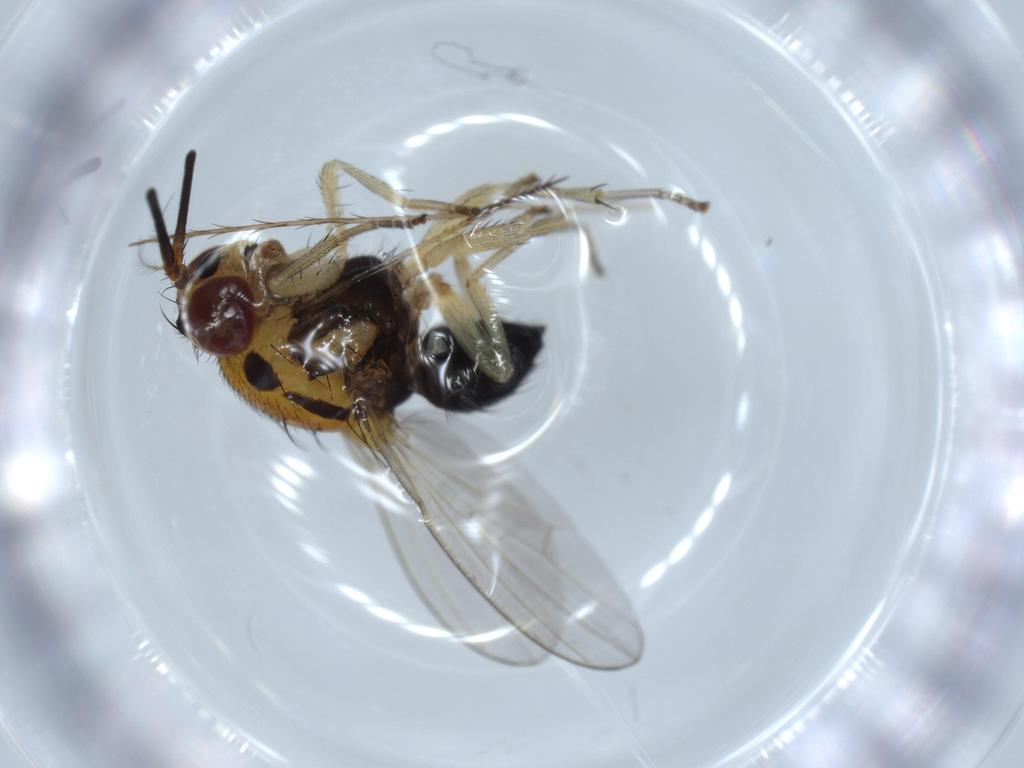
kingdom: Animalia
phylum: Arthropoda
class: Insecta
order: Diptera
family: Lauxaniidae
